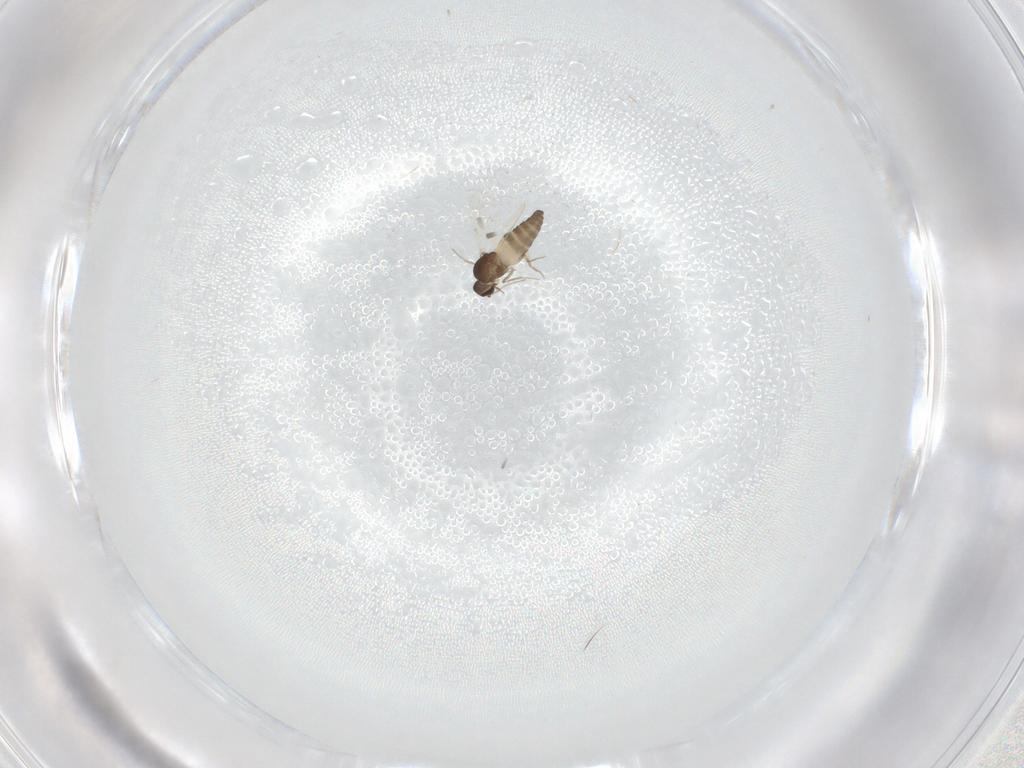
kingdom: Animalia
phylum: Arthropoda
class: Insecta
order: Diptera
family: Ceratopogonidae
